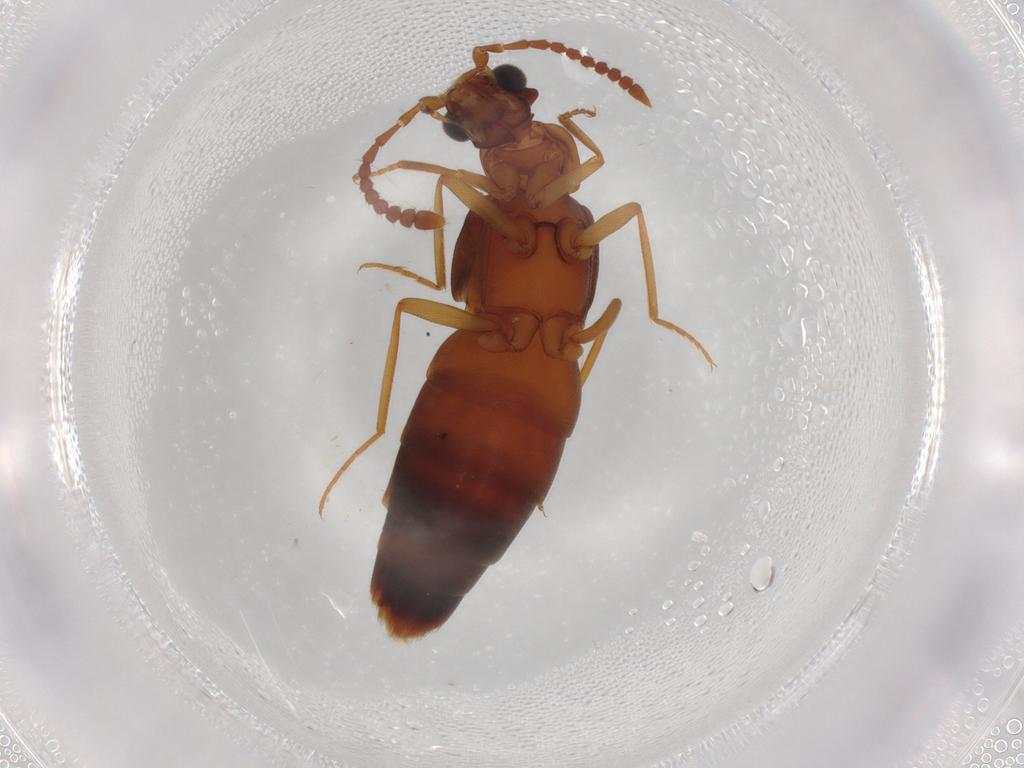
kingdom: Animalia
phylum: Arthropoda
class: Insecta
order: Coleoptera
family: Staphylinidae
